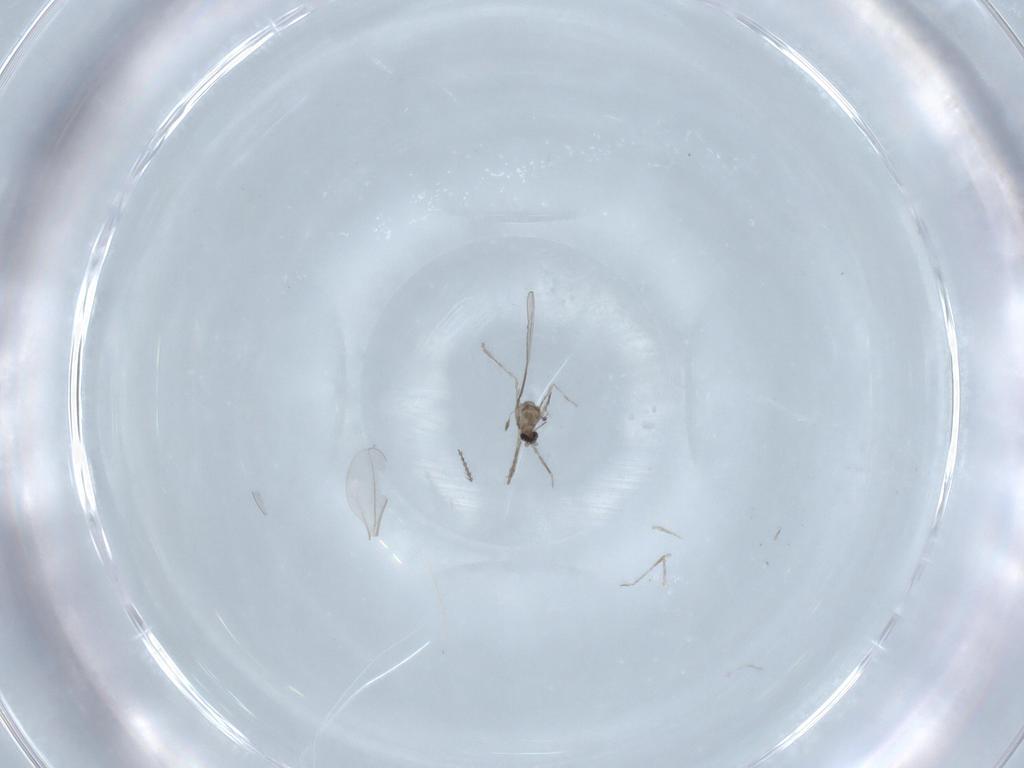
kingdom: Animalia
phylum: Arthropoda
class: Insecta
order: Diptera
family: Cecidomyiidae
